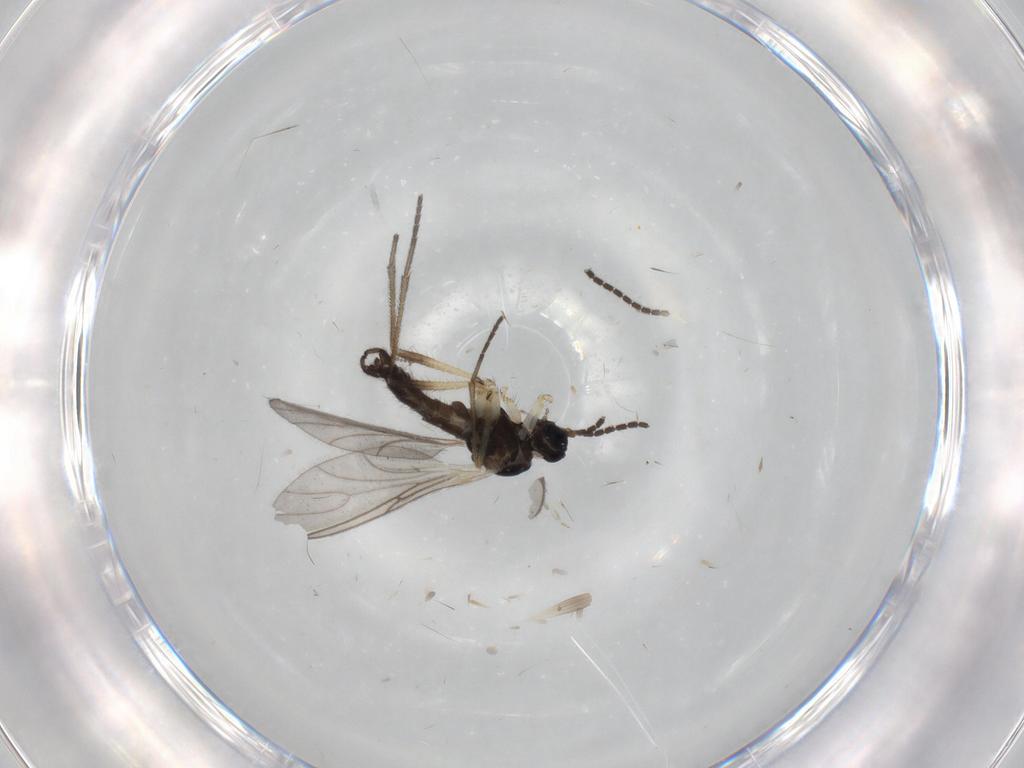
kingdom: Animalia
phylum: Arthropoda
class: Insecta
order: Diptera
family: Sciaridae
